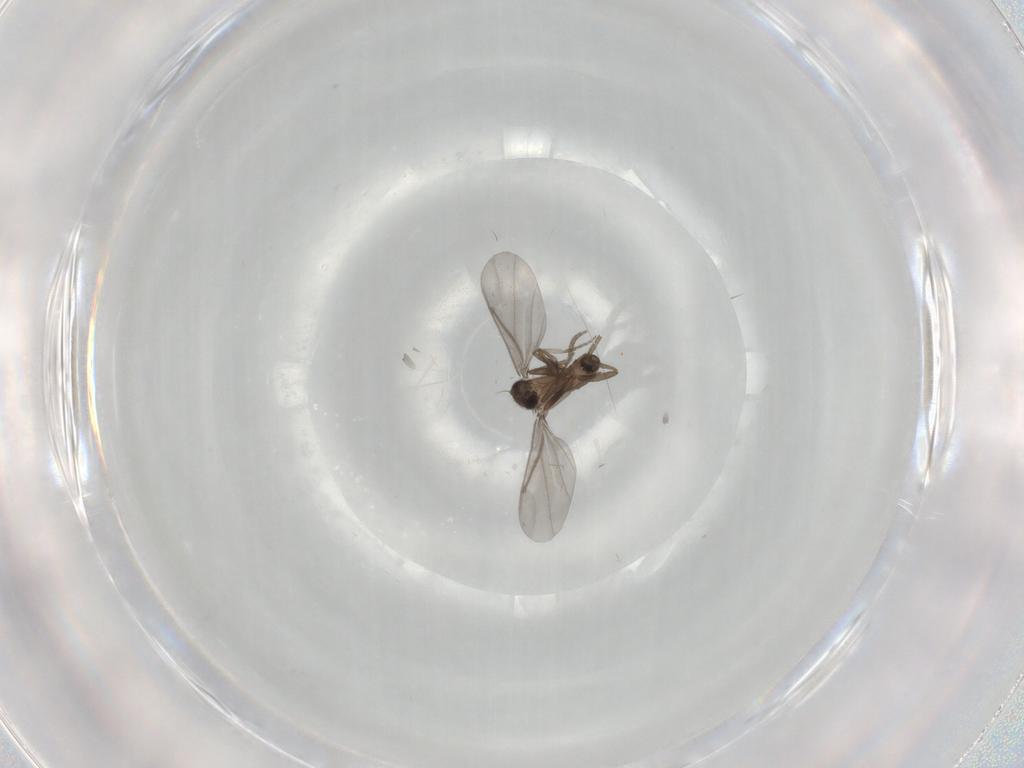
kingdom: Animalia
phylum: Arthropoda
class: Insecta
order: Diptera
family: Phoridae
